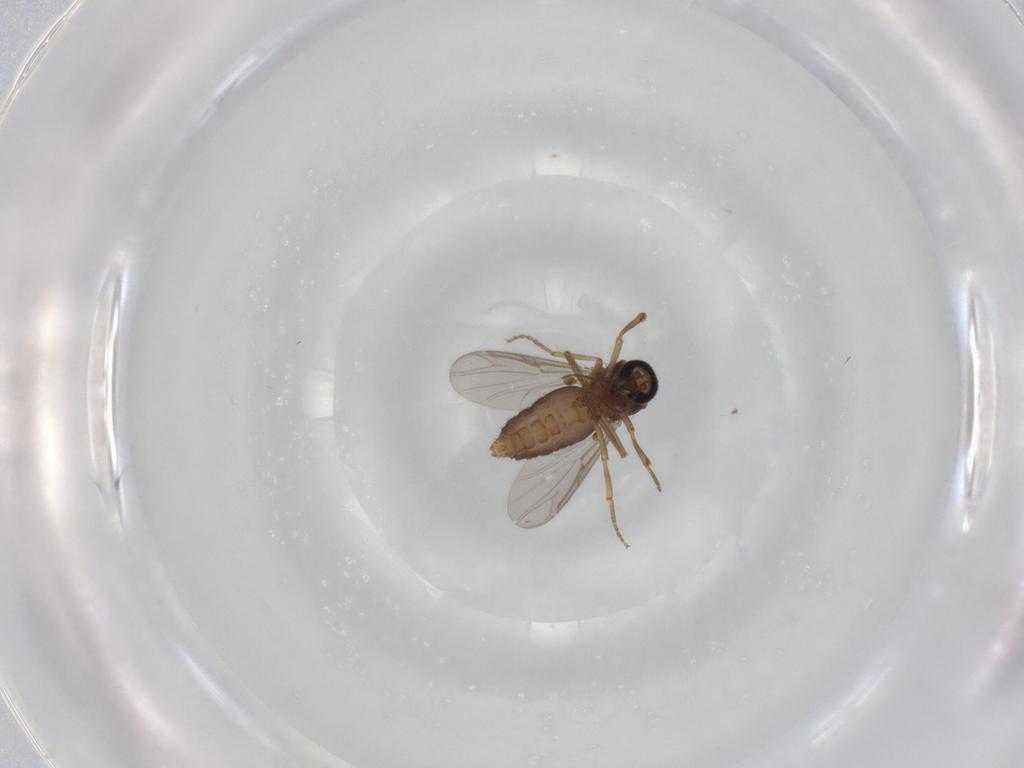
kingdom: Animalia
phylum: Arthropoda
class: Insecta
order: Diptera
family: Ceratopogonidae
